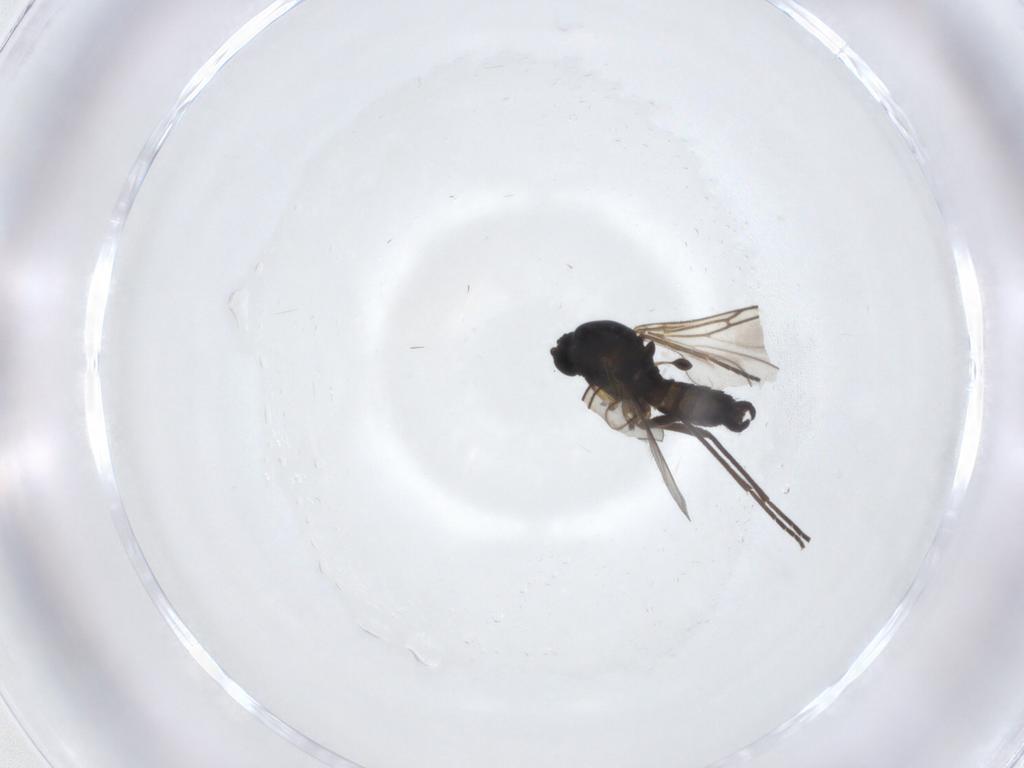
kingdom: Animalia
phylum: Arthropoda
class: Insecta
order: Diptera
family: Sciaridae
